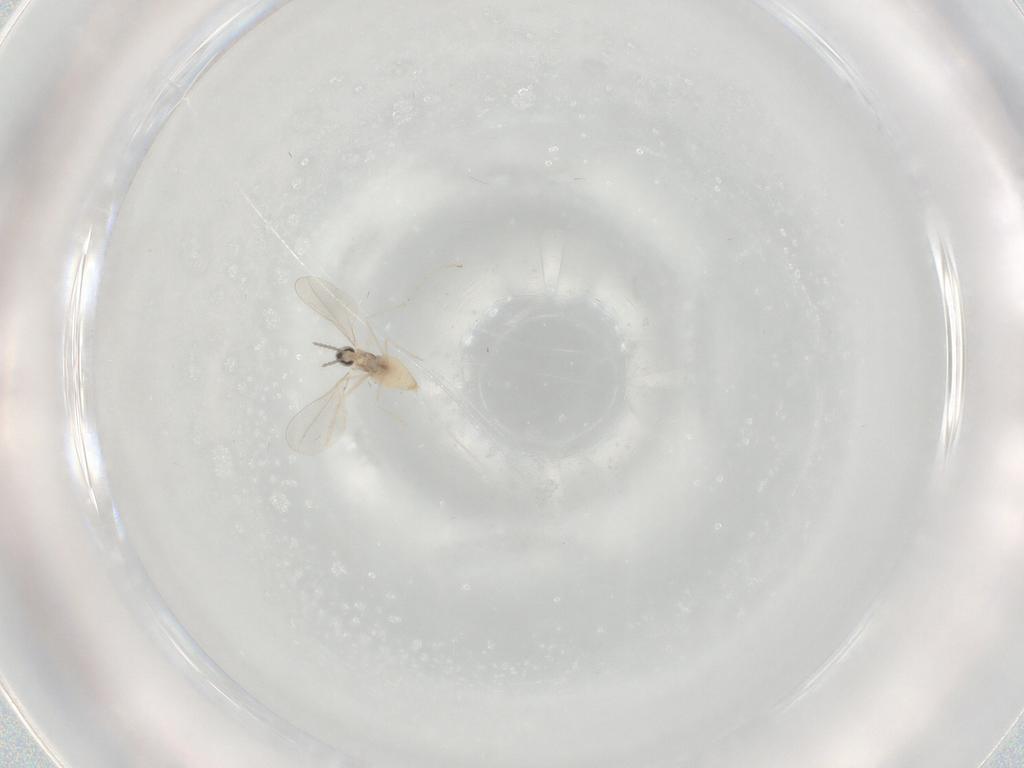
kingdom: Animalia
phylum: Arthropoda
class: Insecta
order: Diptera
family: Cecidomyiidae
